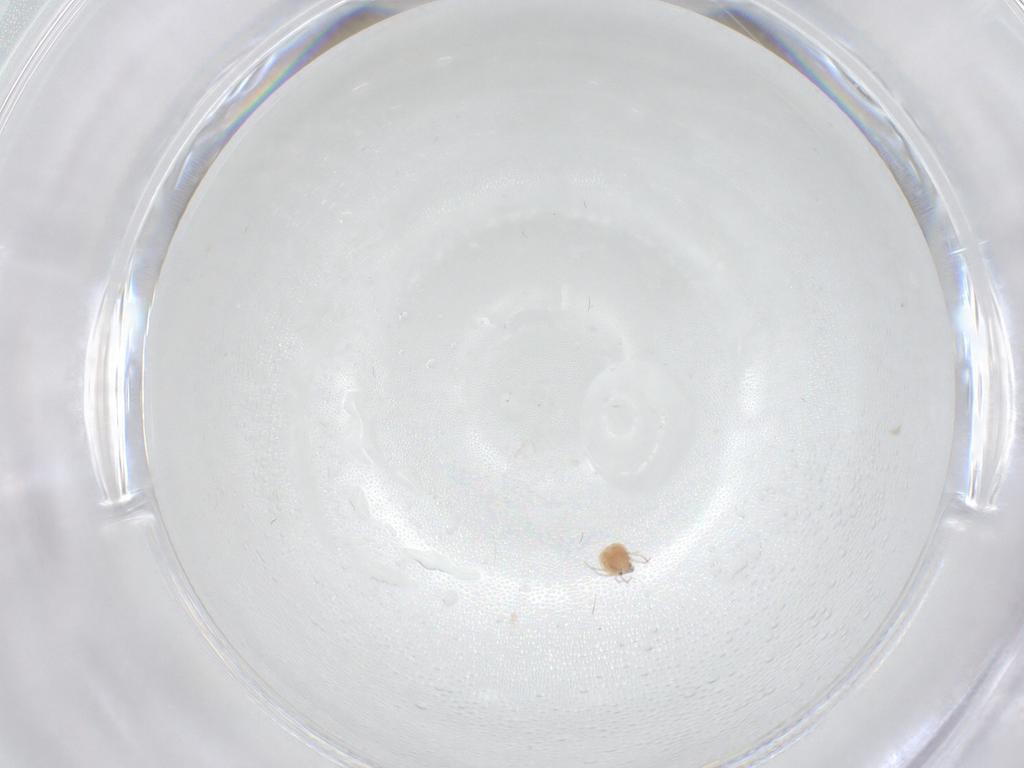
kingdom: Animalia
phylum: Arthropoda
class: Arachnida
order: Trombidiformes
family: Pionidae
